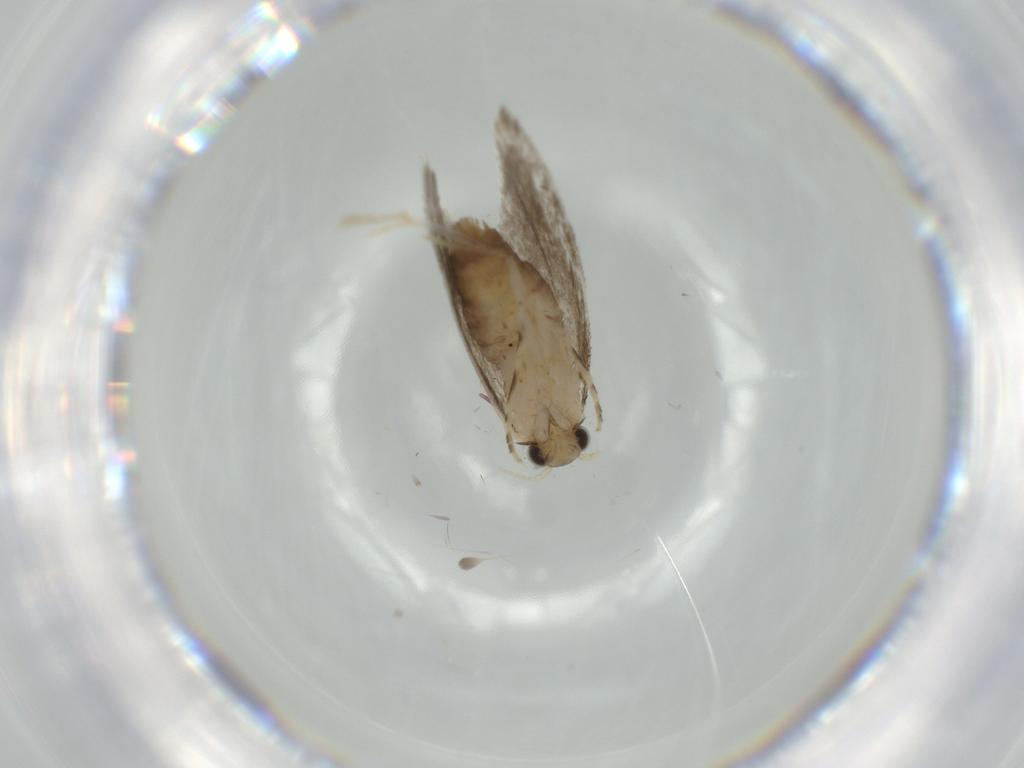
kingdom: Animalia
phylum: Arthropoda
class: Insecta
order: Lepidoptera
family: Tineidae
